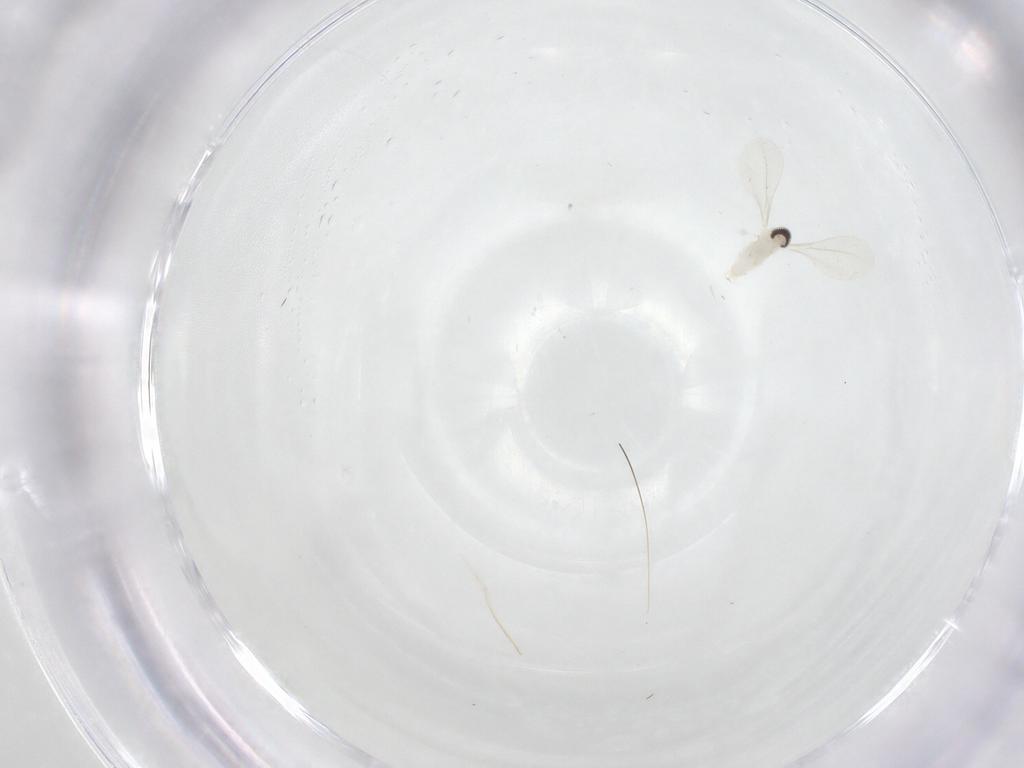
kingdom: Animalia
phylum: Arthropoda
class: Insecta
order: Diptera
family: Cecidomyiidae
